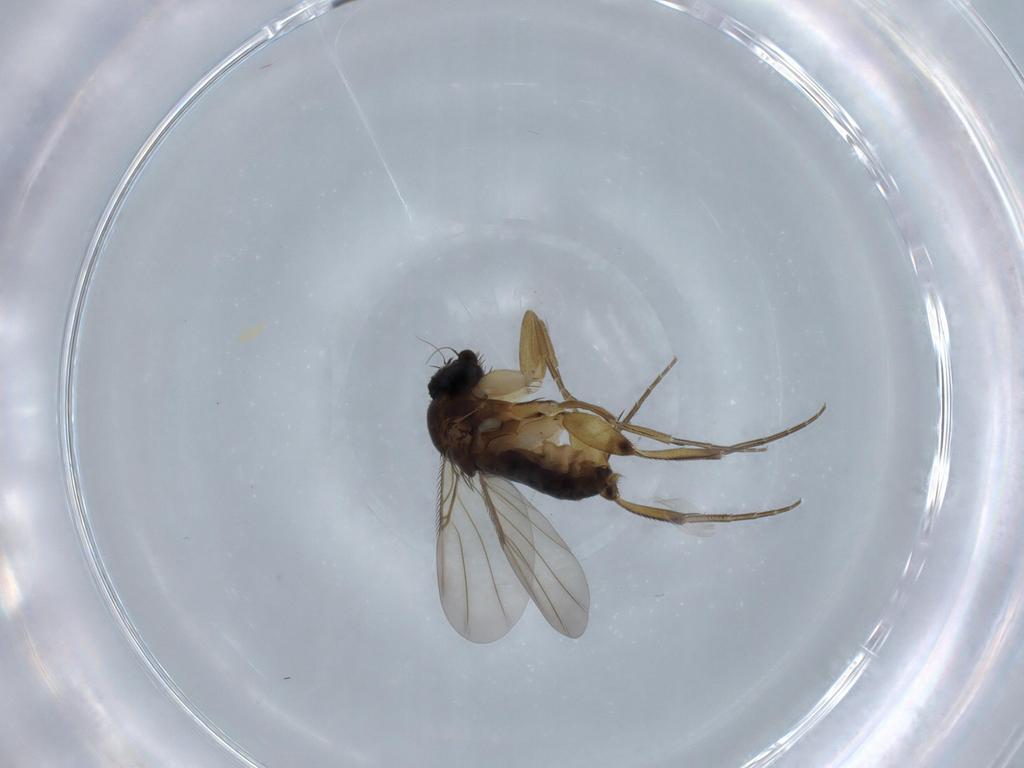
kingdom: Animalia
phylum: Arthropoda
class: Insecta
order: Diptera
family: Phoridae
